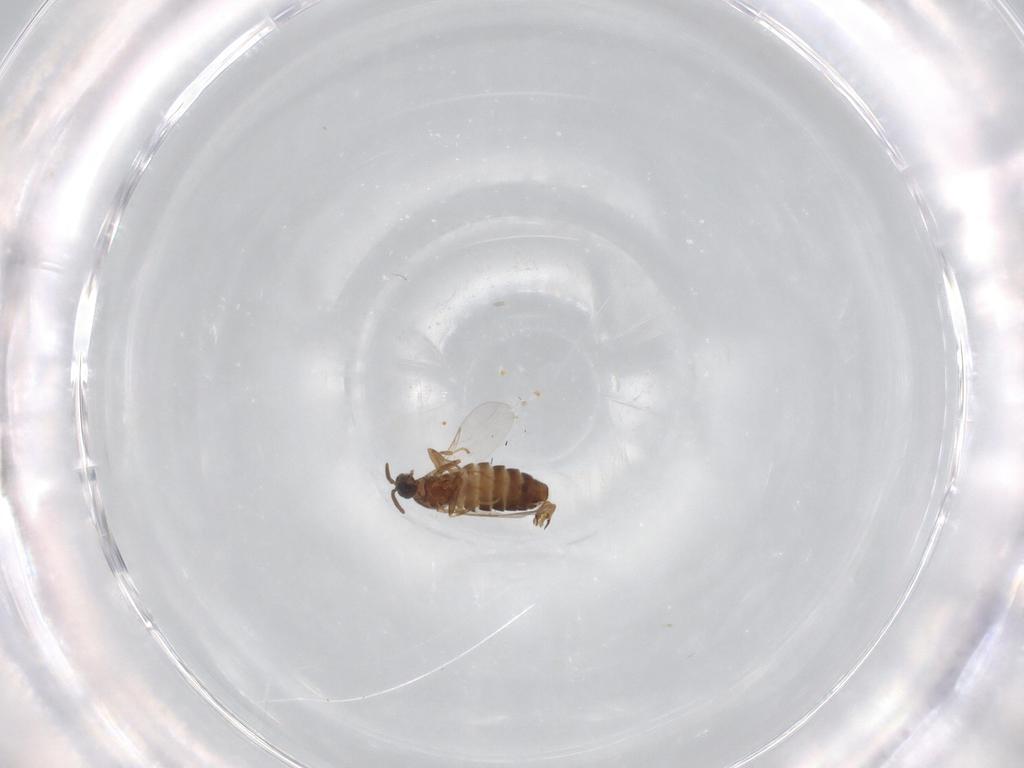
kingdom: Animalia
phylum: Arthropoda
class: Insecta
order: Diptera
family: Scatopsidae
